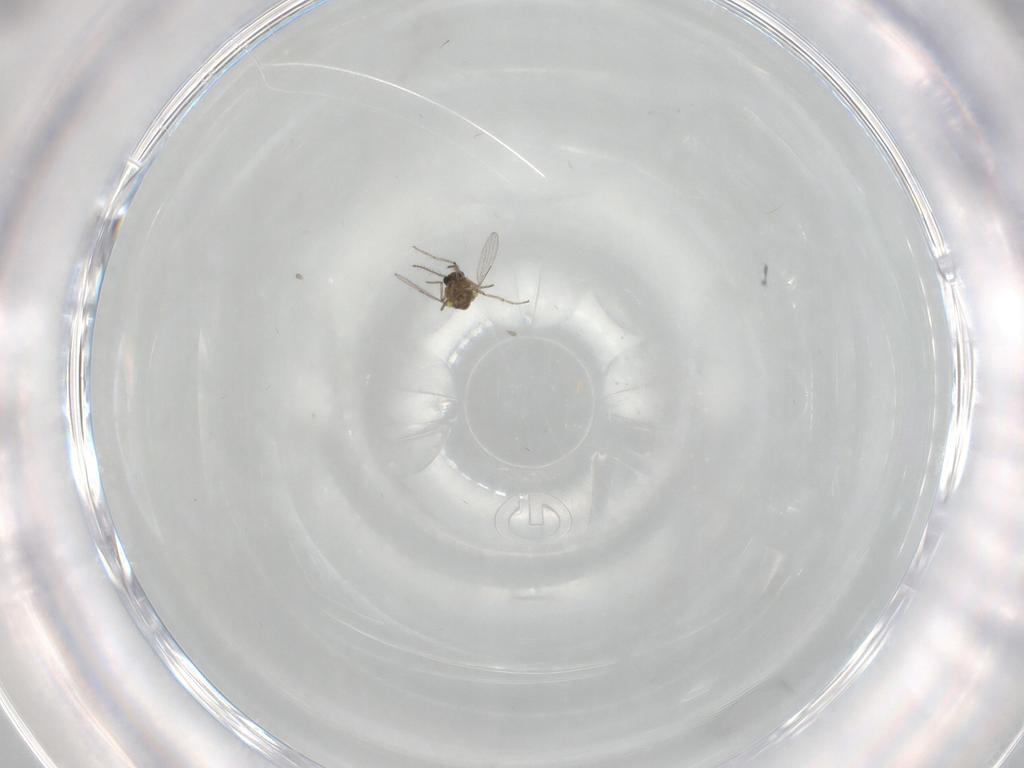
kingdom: Animalia
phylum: Arthropoda
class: Insecta
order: Diptera
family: Ceratopogonidae
